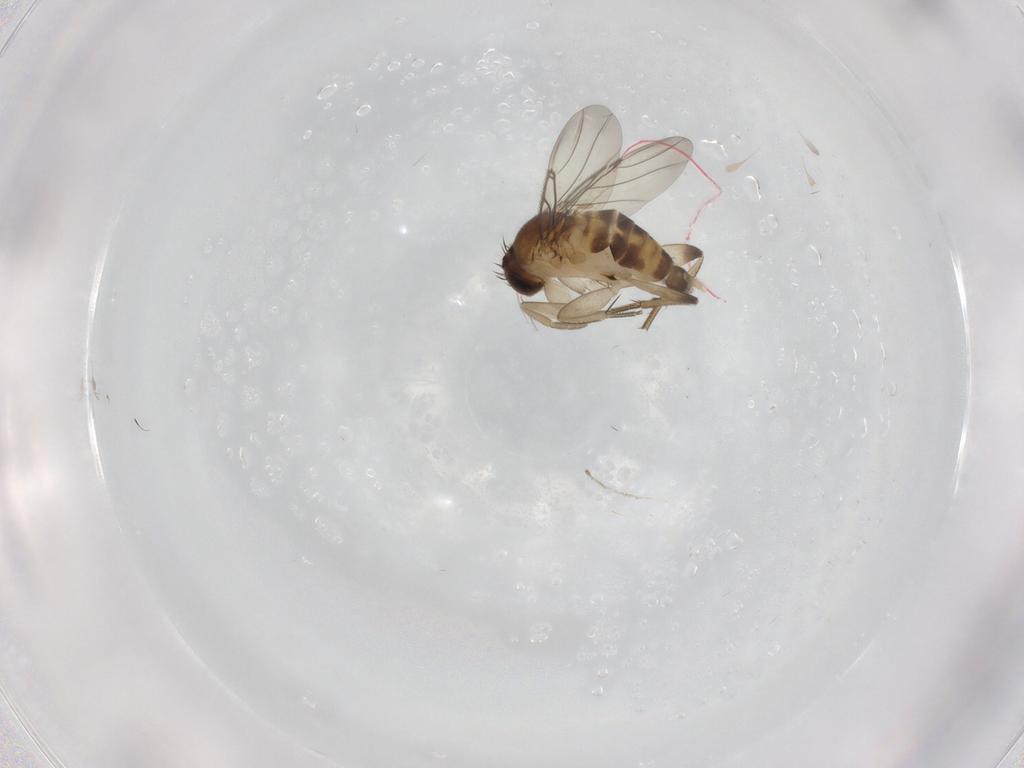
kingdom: Animalia
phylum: Arthropoda
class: Insecta
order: Diptera
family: Phoridae
